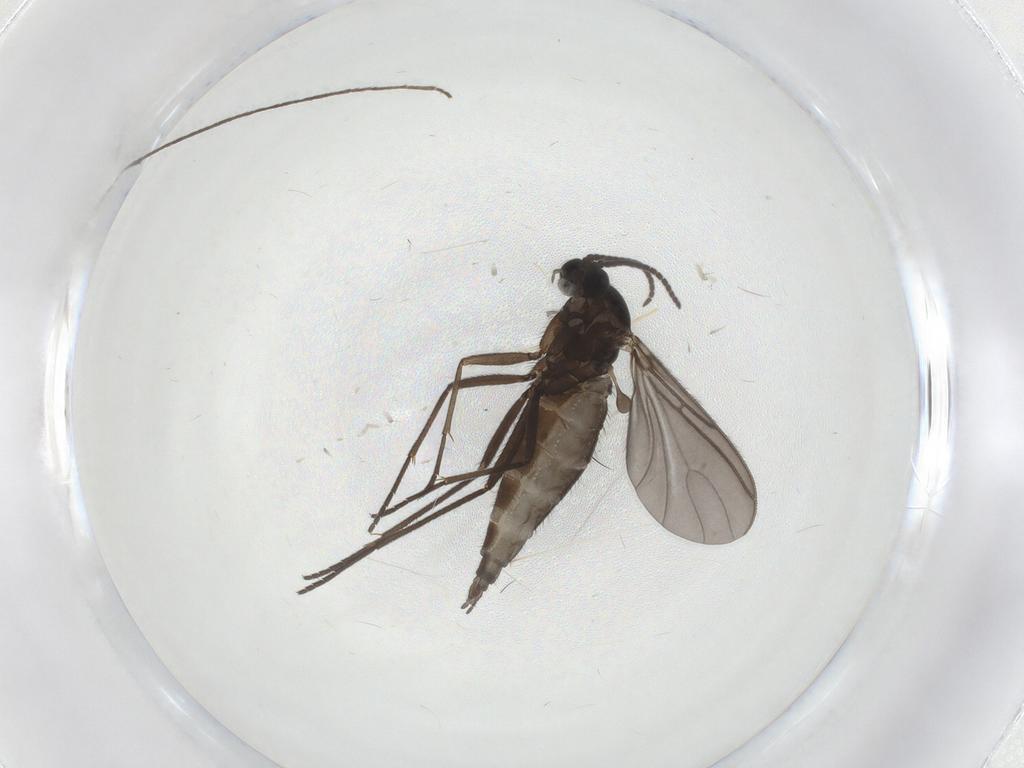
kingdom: Animalia
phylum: Arthropoda
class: Insecta
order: Diptera
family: Sciaridae
